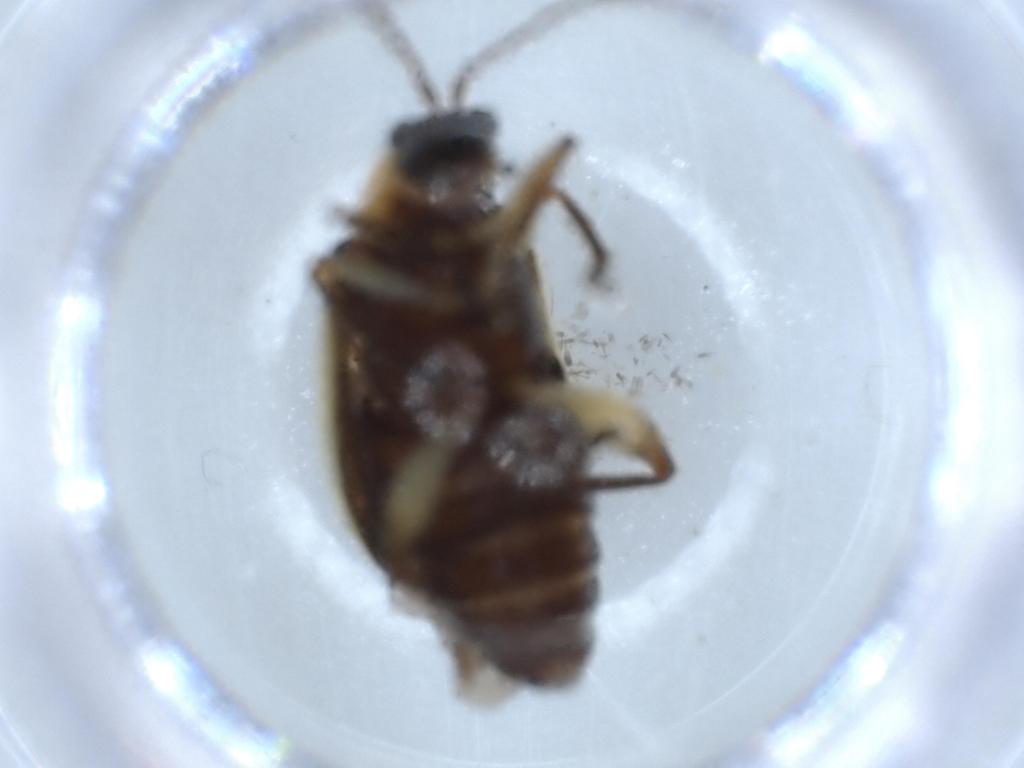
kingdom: Animalia
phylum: Arthropoda
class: Insecta
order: Coleoptera
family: Lampyridae
